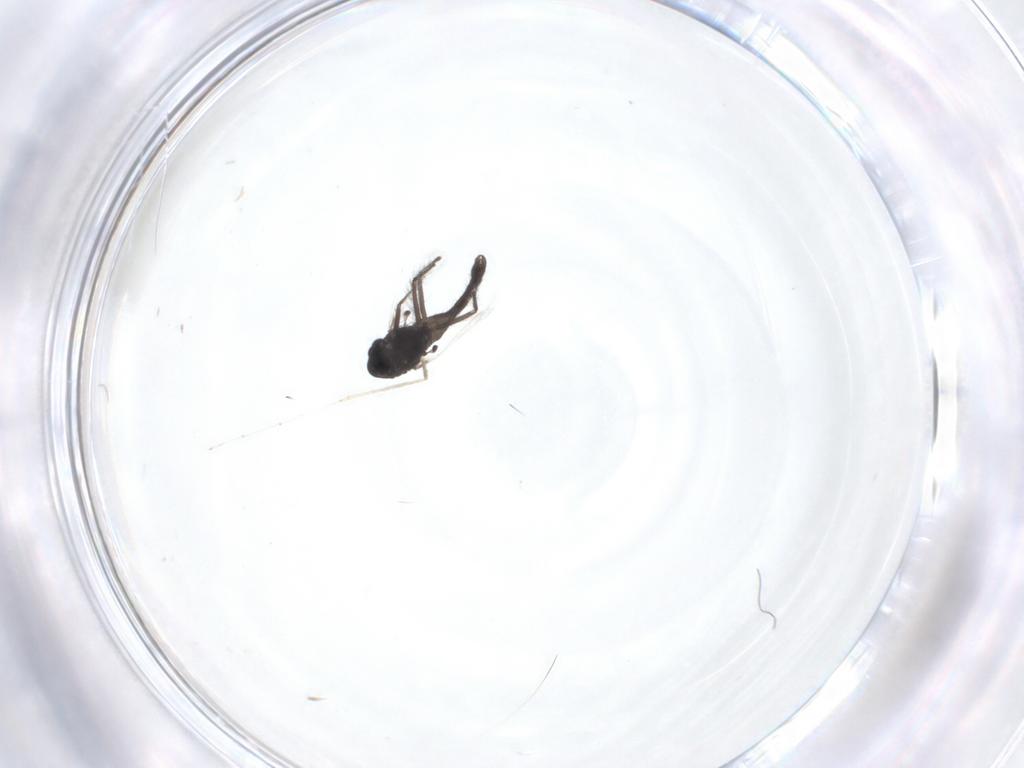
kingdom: Animalia
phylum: Arthropoda
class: Insecta
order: Diptera
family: Chironomidae
